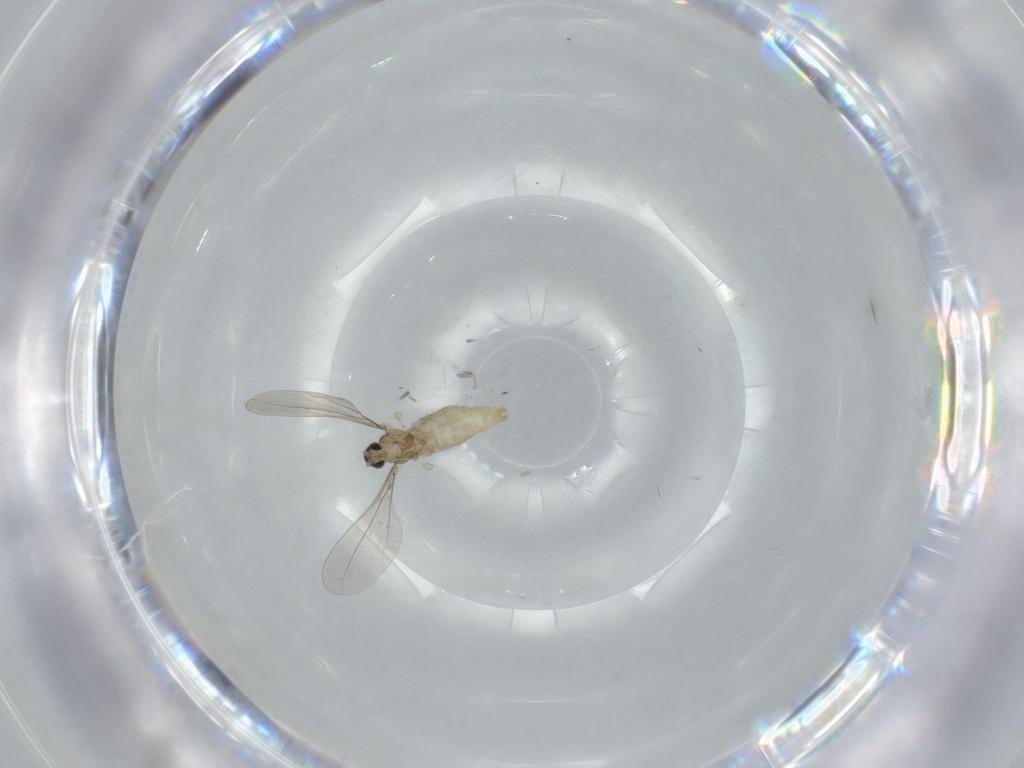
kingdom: Animalia
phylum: Arthropoda
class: Insecta
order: Diptera
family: Cecidomyiidae
